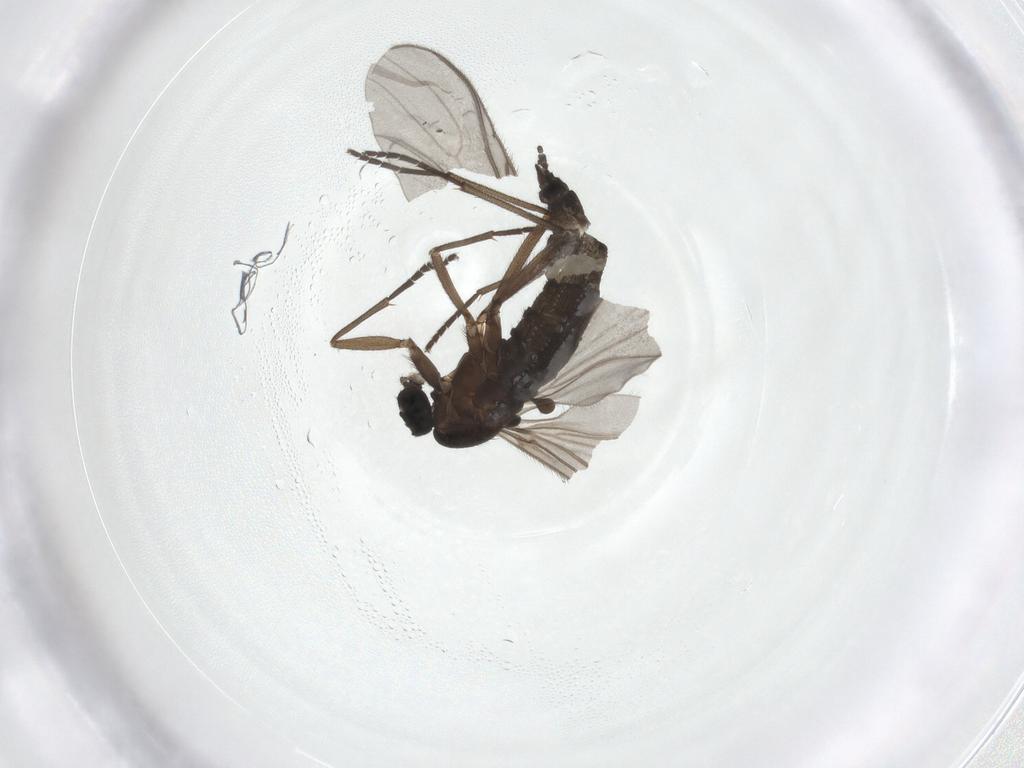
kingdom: Animalia
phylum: Arthropoda
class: Insecta
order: Diptera
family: Sciaridae
